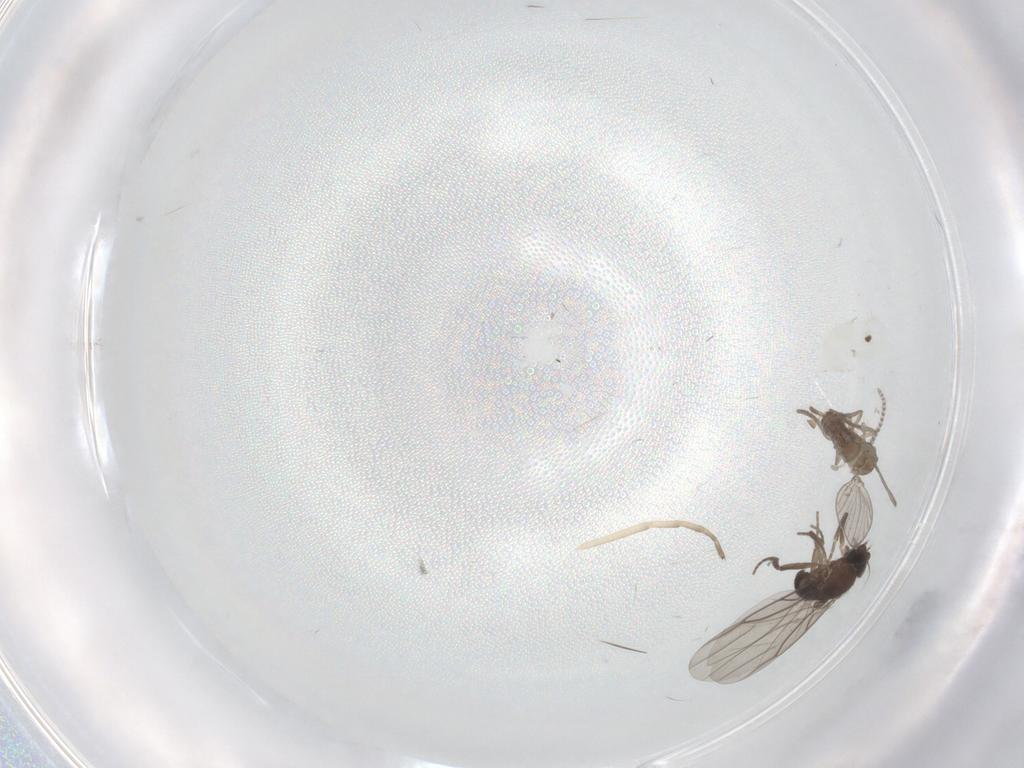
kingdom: Animalia
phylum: Arthropoda
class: Insecta
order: Diptera
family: Cecidomyiidae
